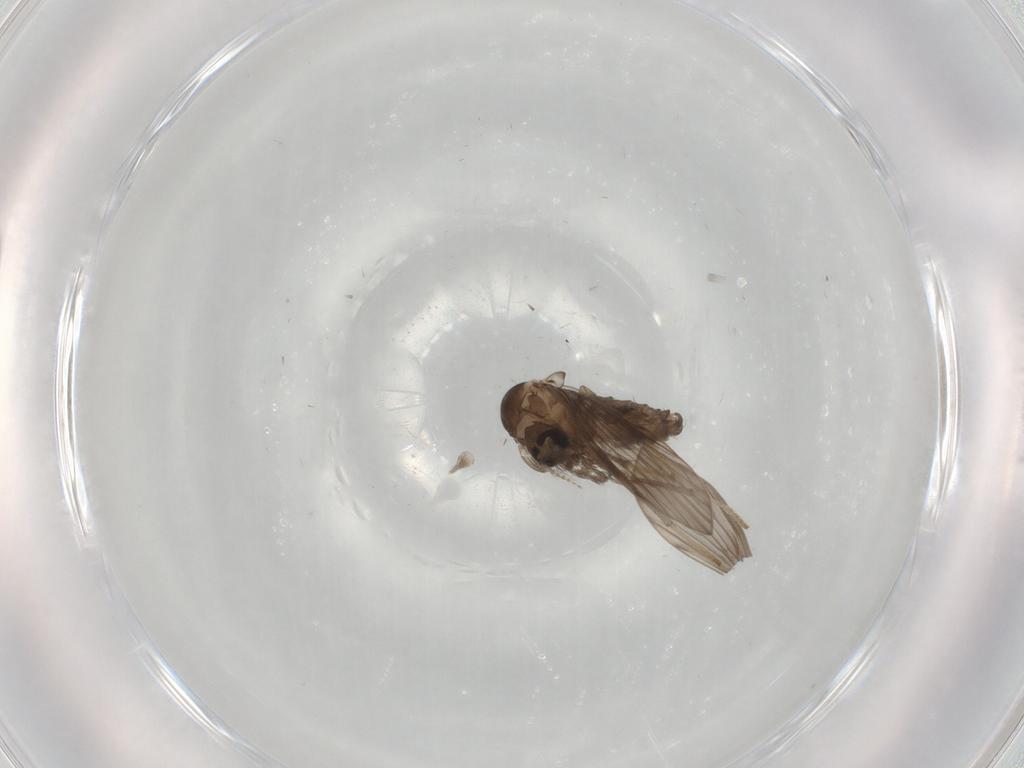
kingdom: Animalia
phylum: Arthropoda
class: Insecta
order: Diptera
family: Psychodidae
